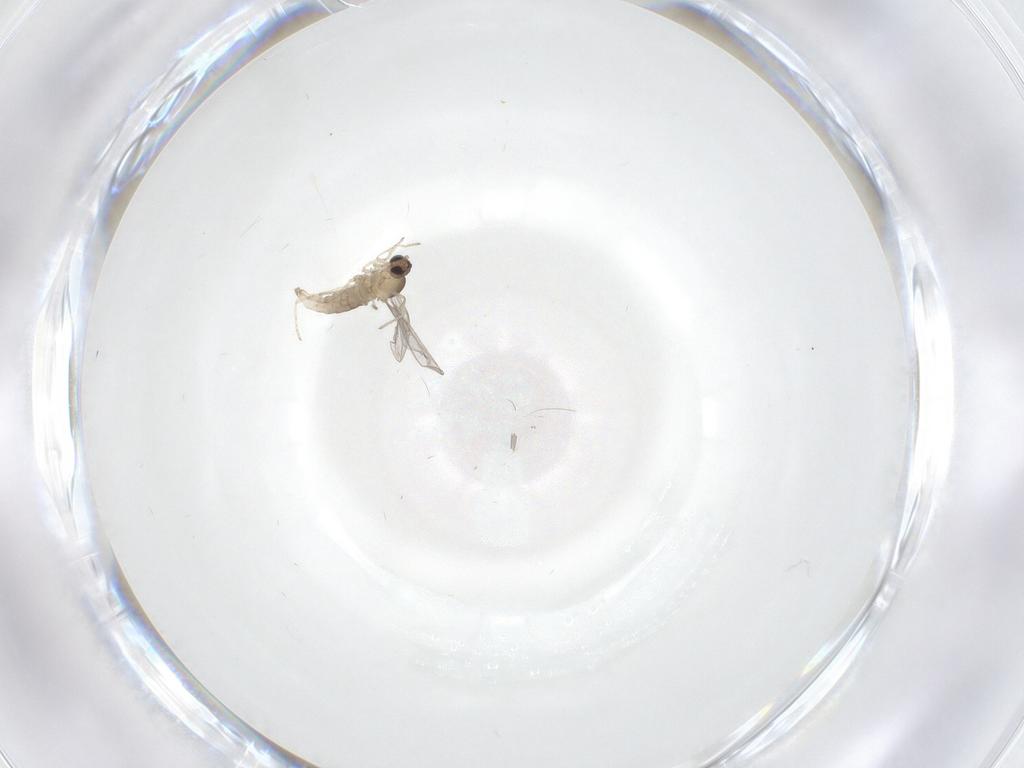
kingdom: Animalia
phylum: Arthropoda
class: Insecta
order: Diptera
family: Cecidomyiidae
